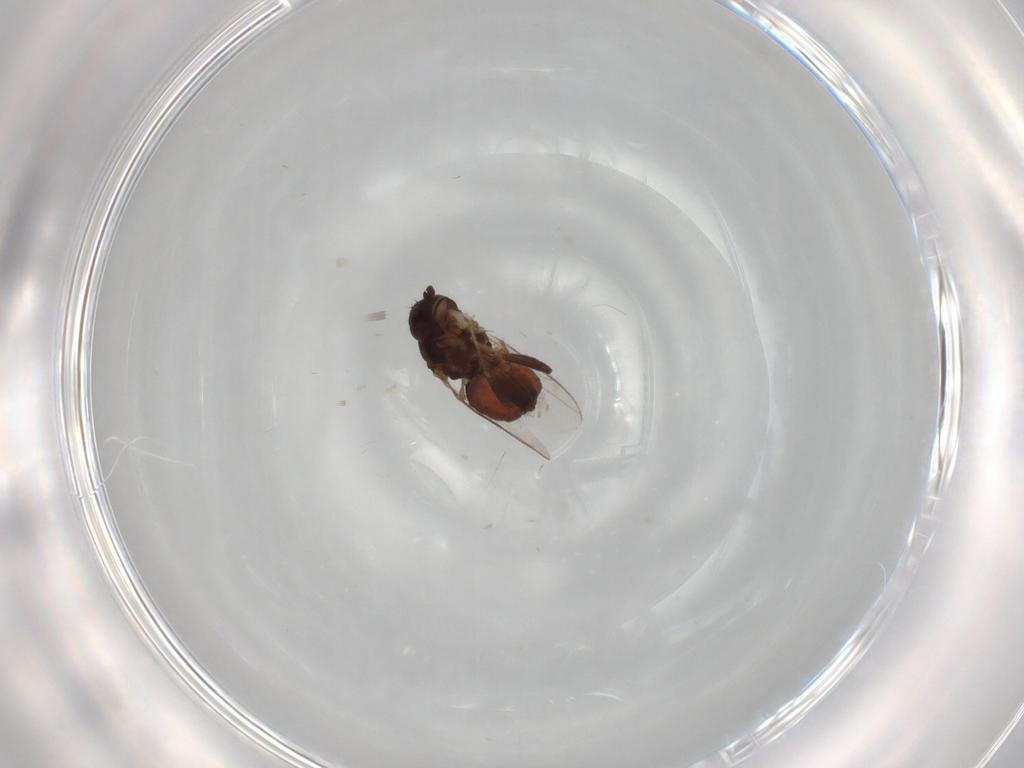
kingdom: Animalia
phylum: Arthropoda
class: Insecta
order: Diptera
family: Sphaeroceridae
